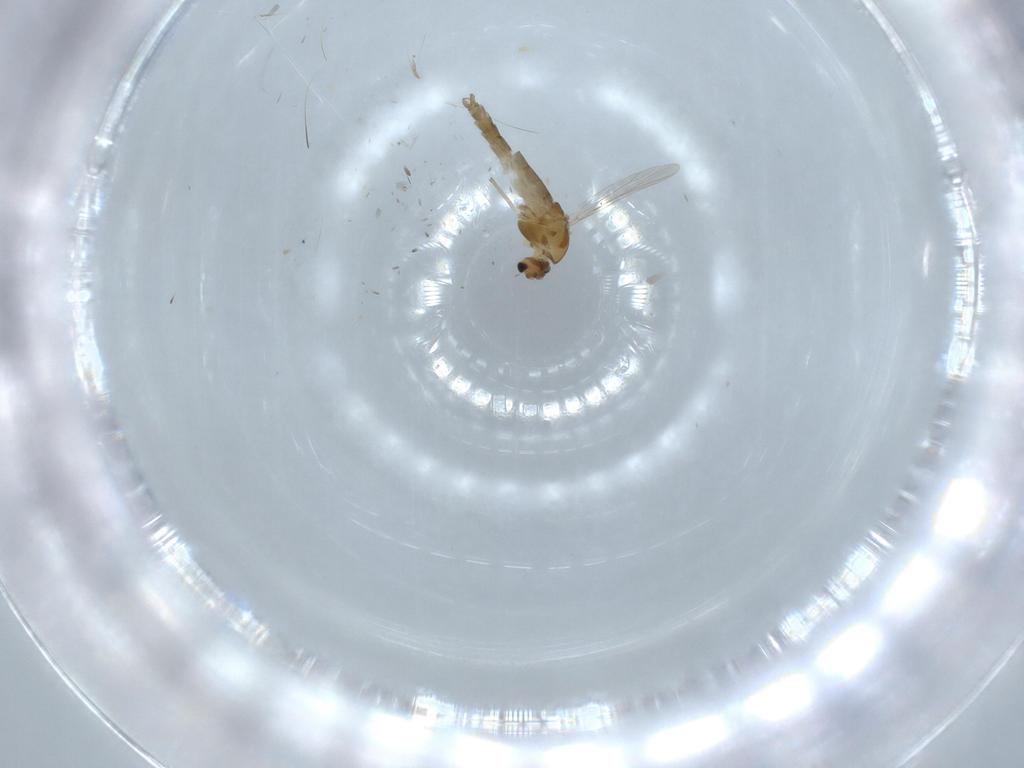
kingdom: Animalia
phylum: Arthropoda
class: Insecta
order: Diptera
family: Chironomidae
